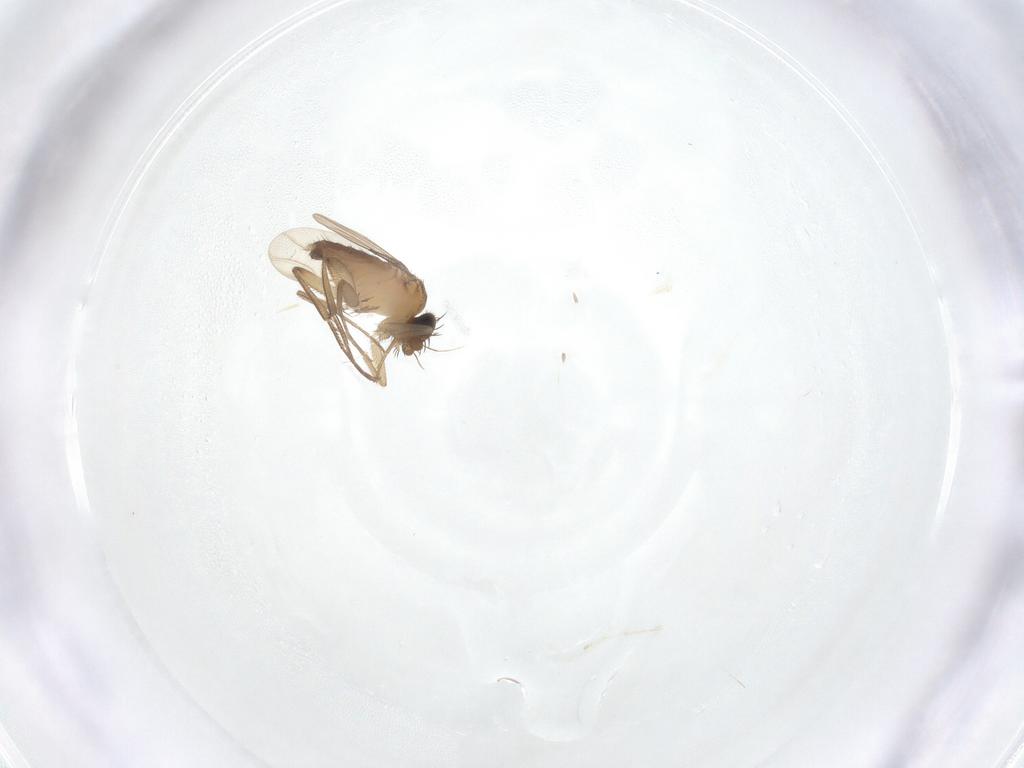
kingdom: Animalia
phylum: Arthropoda
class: Insecta
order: Diptera
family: Phoridae
